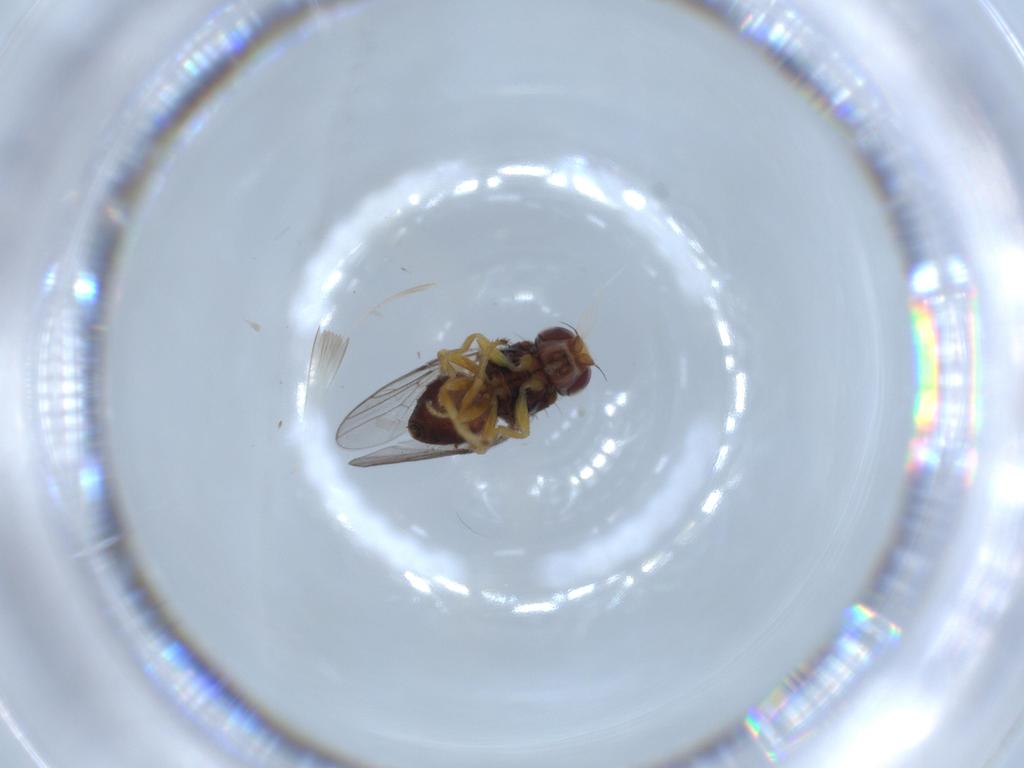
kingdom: Animalia
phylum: Arthropoda
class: Insecta
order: Diptera
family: Chloropidae
